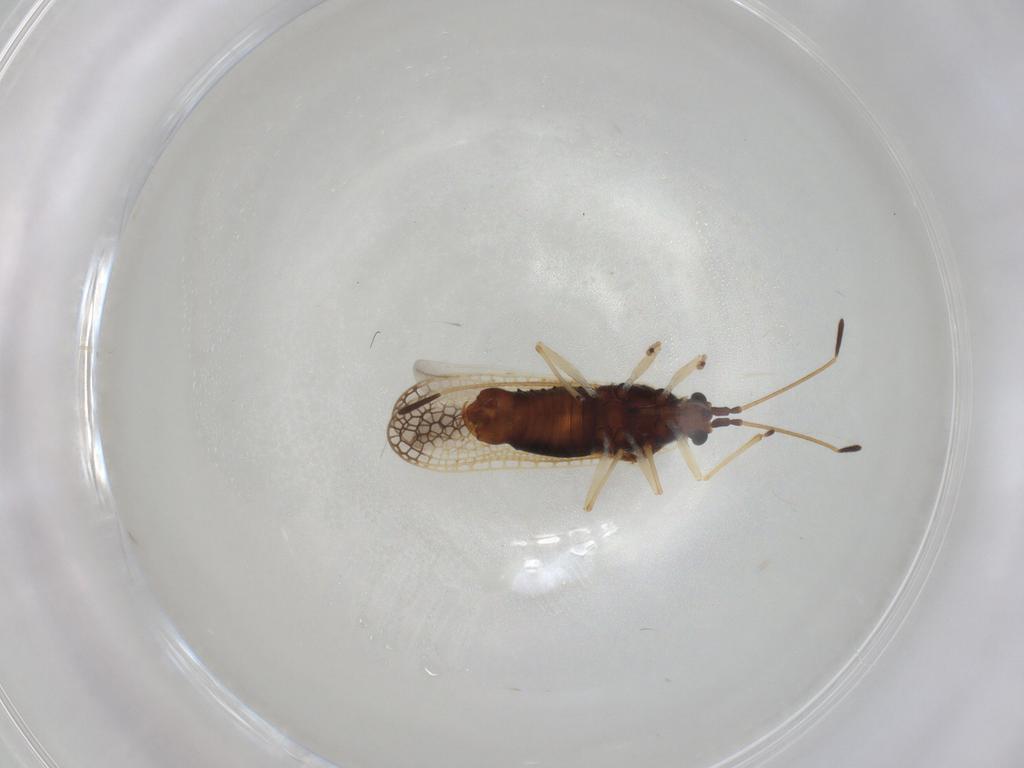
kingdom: Animalia
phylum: Arthropoda
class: Insecta
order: Hemiptera
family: Tingidae
